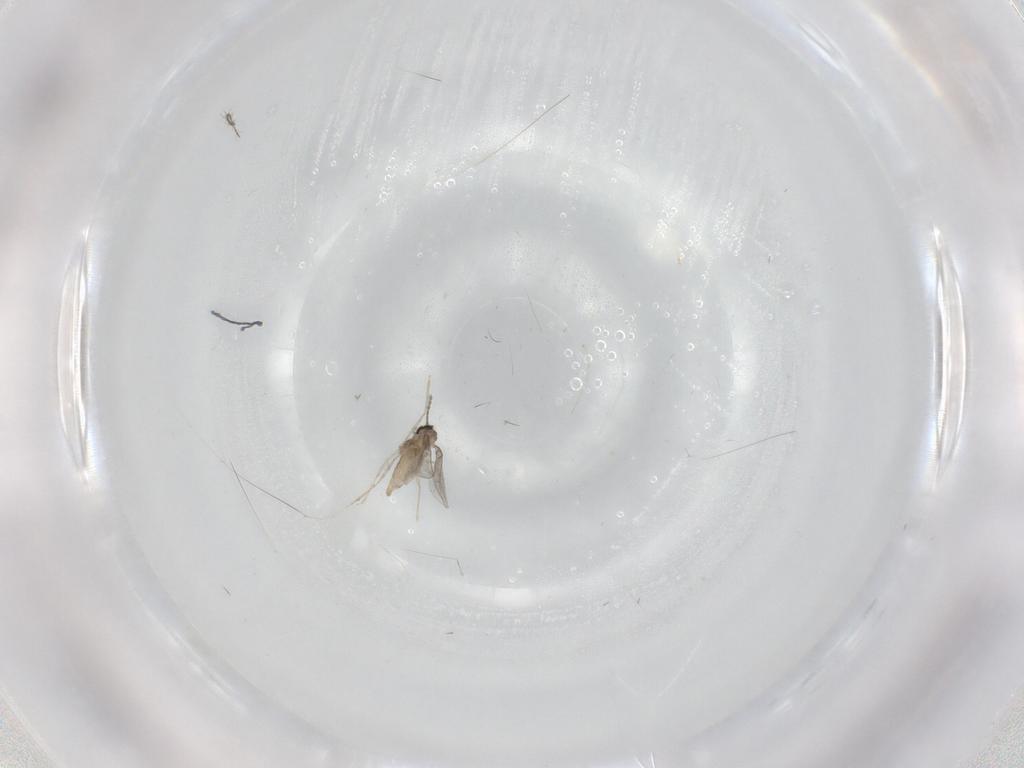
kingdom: Animalia
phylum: Arthropoda
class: Insecta
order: Diptera
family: Cecidomyiidae
